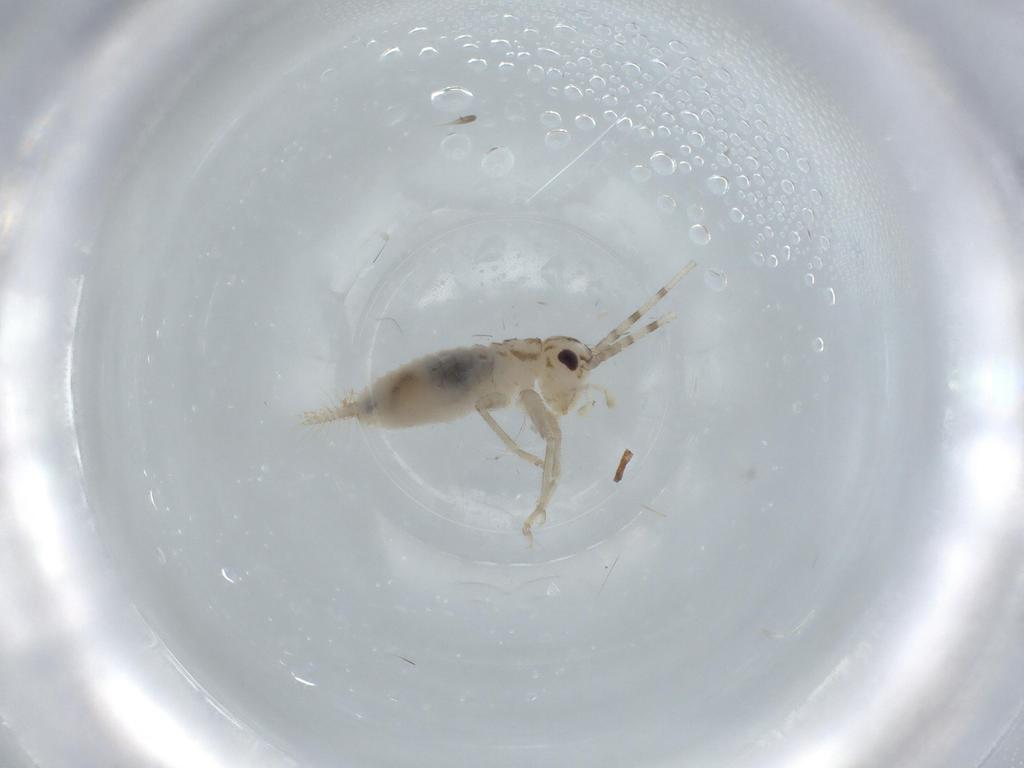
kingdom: Animalia
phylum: Arthropoda
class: Insecta
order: Orthoptera
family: Trigonidiidae
